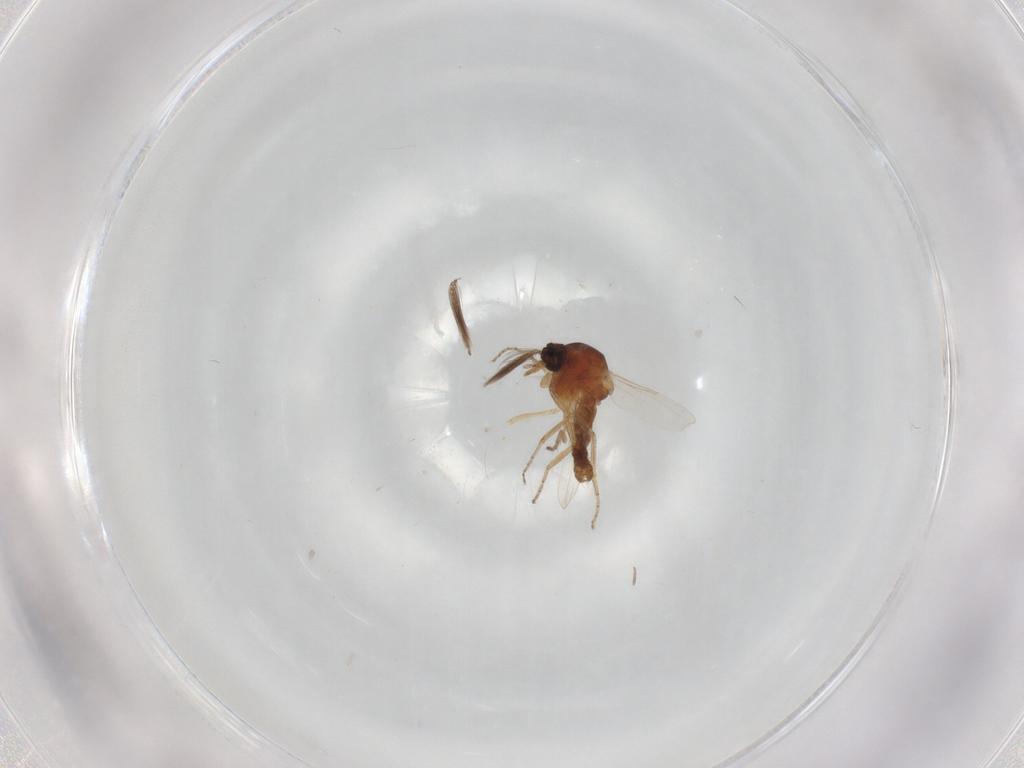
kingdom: Animalia
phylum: Arthropoda
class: Insecta
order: Diptera
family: Ceratopogonidae
